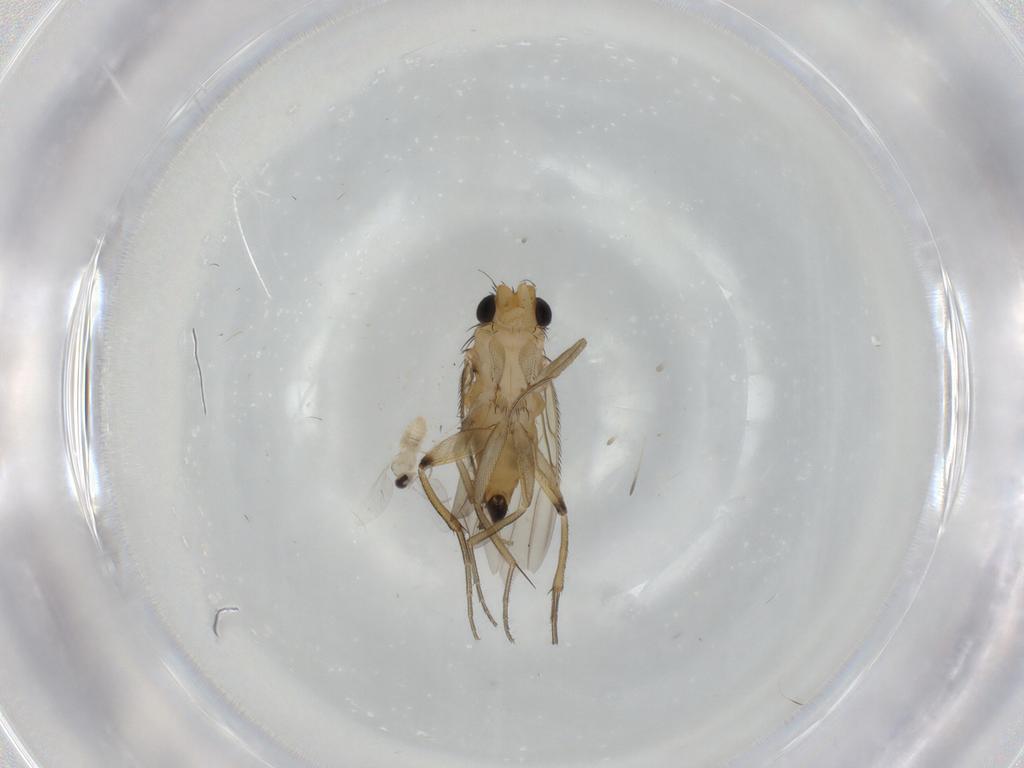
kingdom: Animalia
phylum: Arthropoda
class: Insecta
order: Diptera
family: Phoridae
